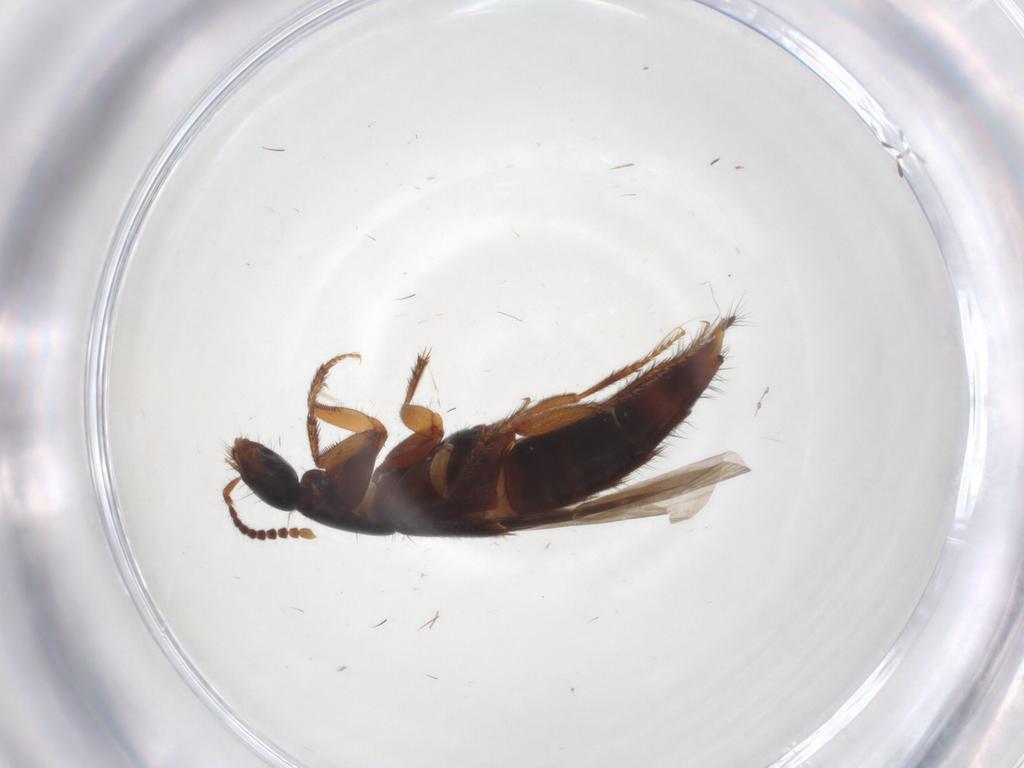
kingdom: Animalia
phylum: Arthropoda
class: Insecta
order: Coleoptera
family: Staphylinidae
